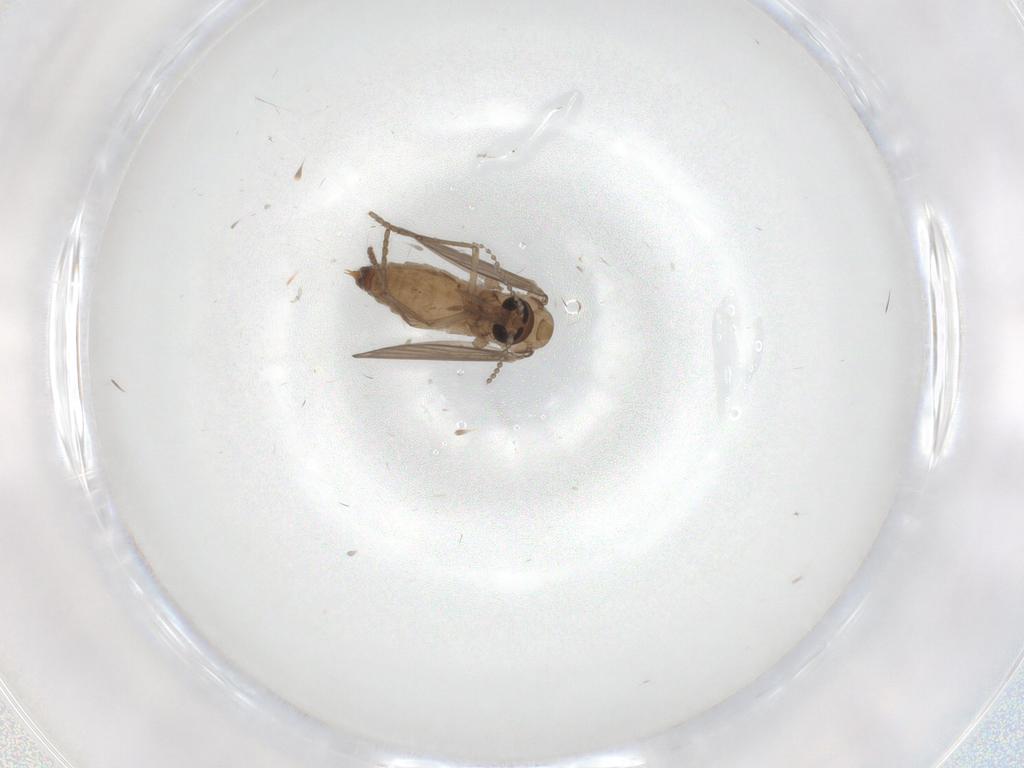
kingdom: Animalia
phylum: Arthropoda
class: Insecta
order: Diptera
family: Psychodidae
